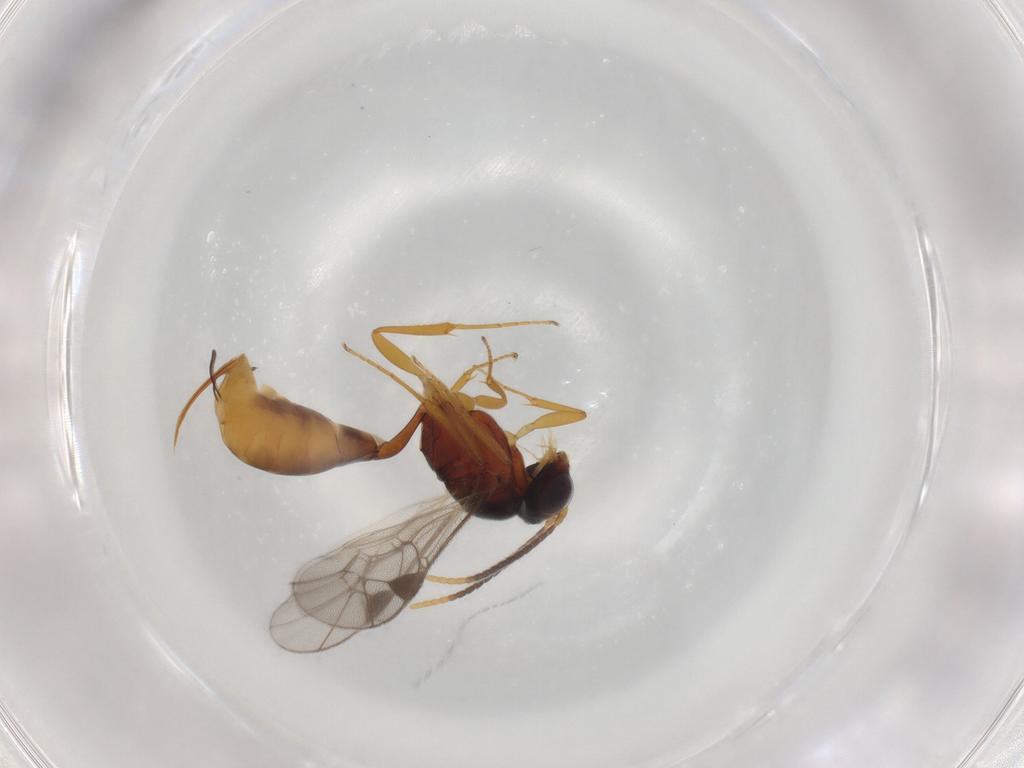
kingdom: Animalia
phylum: Arthropoda
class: Insecta
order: Hymenoptera
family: Ichneumonidae
